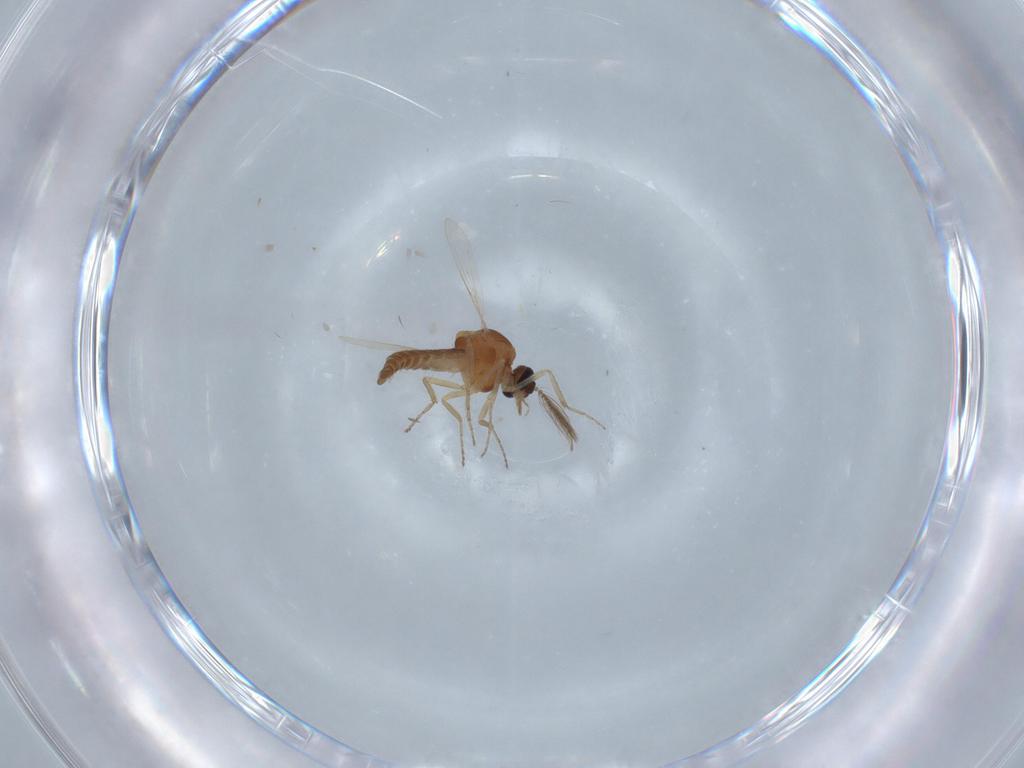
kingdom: Animalia
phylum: Arthropoda
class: Insecta
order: Diptera
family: Ceratopogonidae
